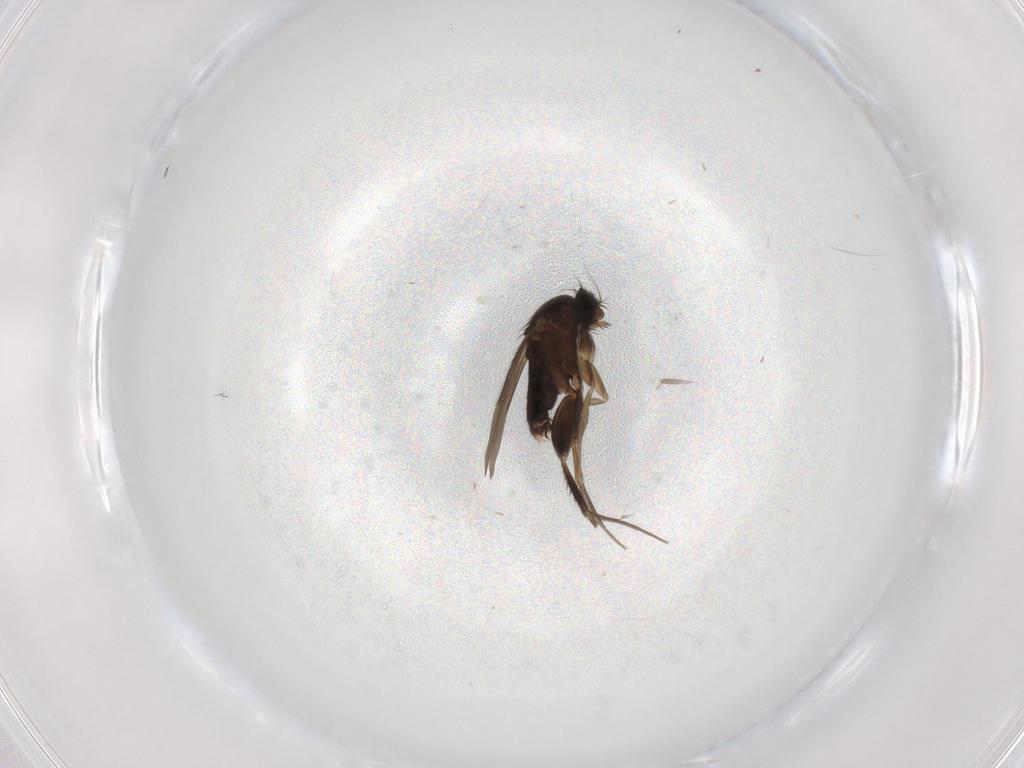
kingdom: Animalia
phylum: Arthropoda
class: Insecta
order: Diptera
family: Phoridae
